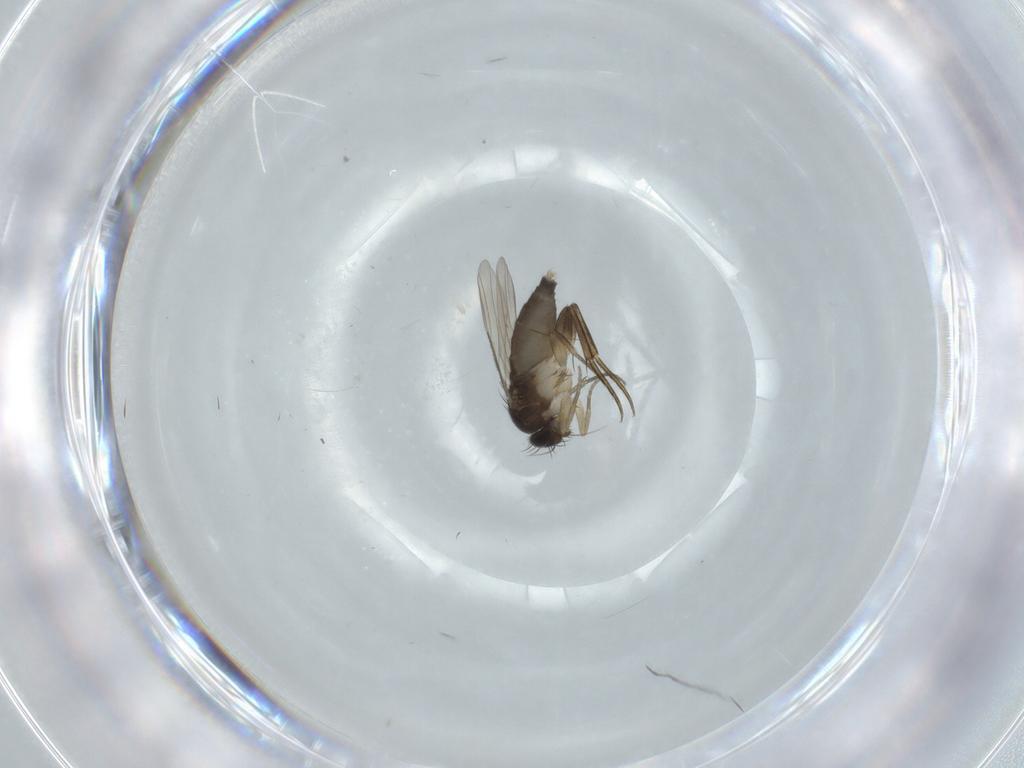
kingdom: Animalia
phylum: Arthropoda
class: Insecta
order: Diptera
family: Phoridae
